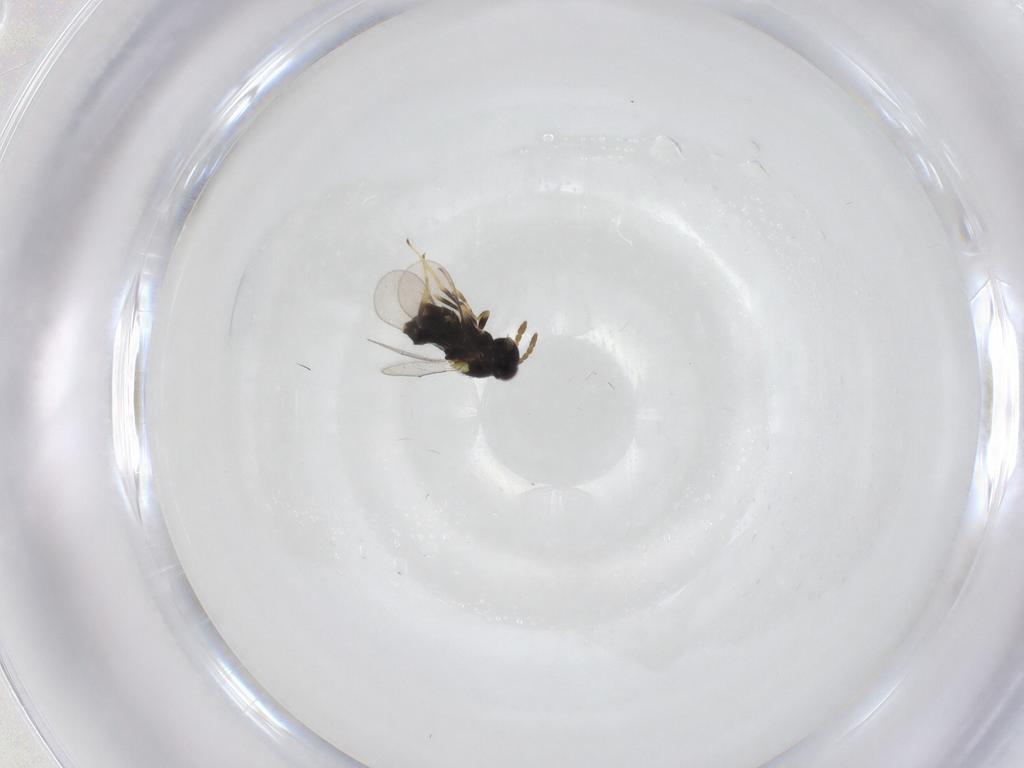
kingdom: Animalia
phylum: Arthropoda
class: Insecta
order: Hymenoptera
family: Aphelinidae
